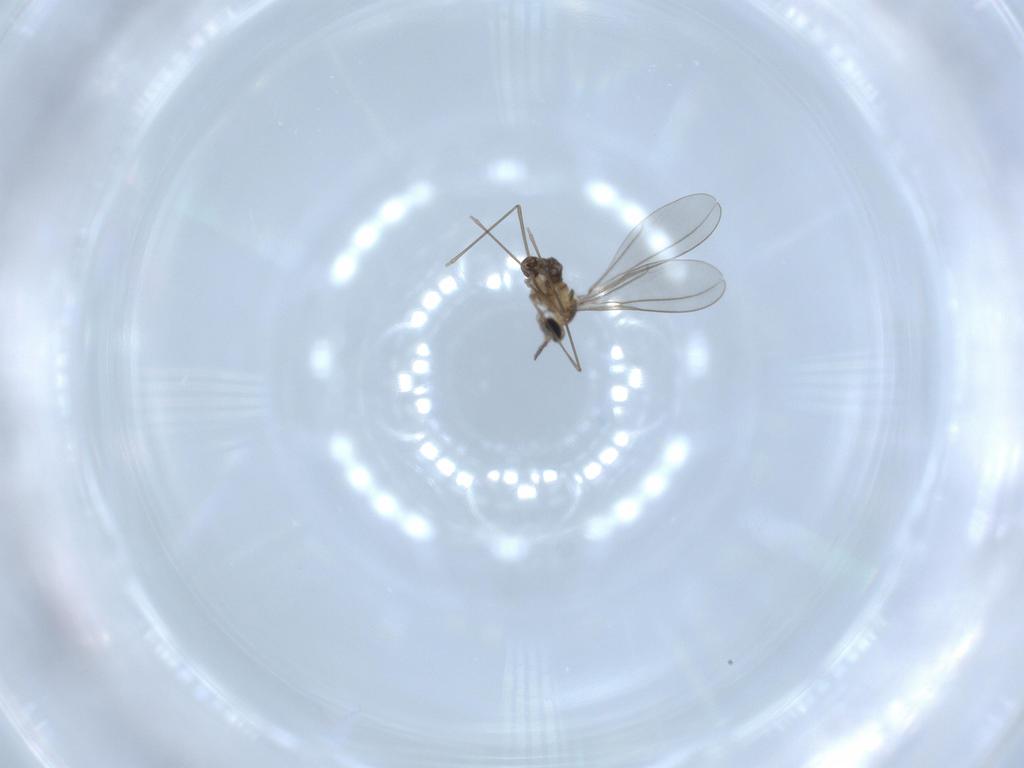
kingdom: Animalia
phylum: Arthropoda
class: Insecta
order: Diptera
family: Cecidomyiidae
